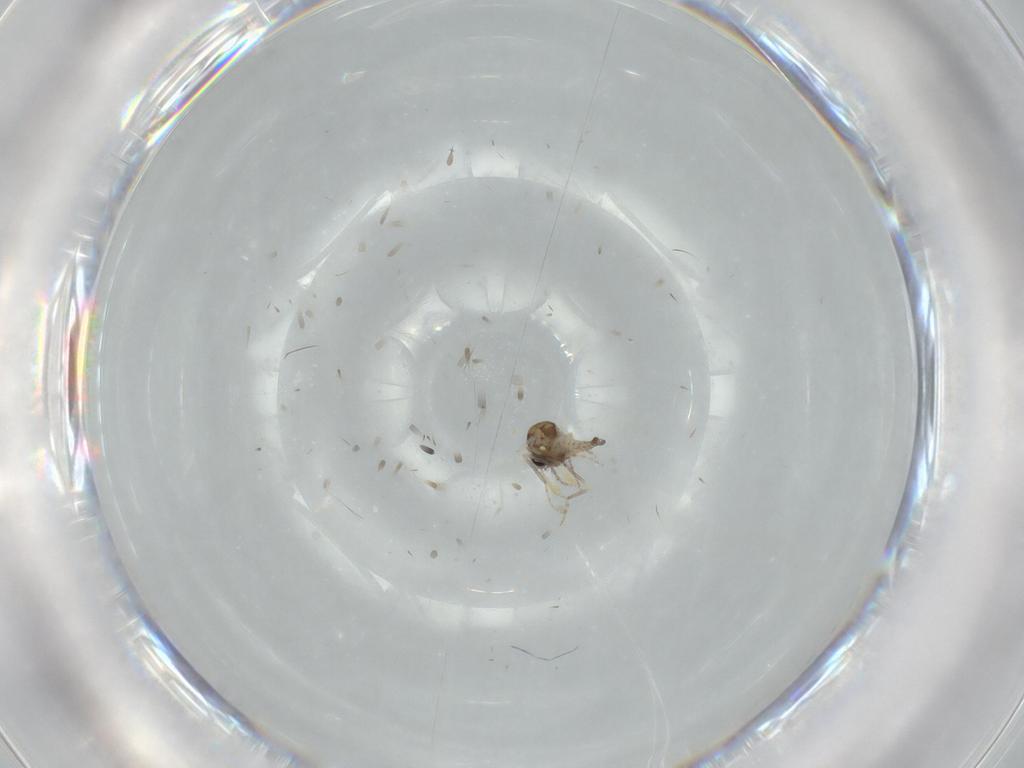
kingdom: Animalia
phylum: Arthropoda
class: Insecta
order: Diptera
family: Ceratopogonidae
